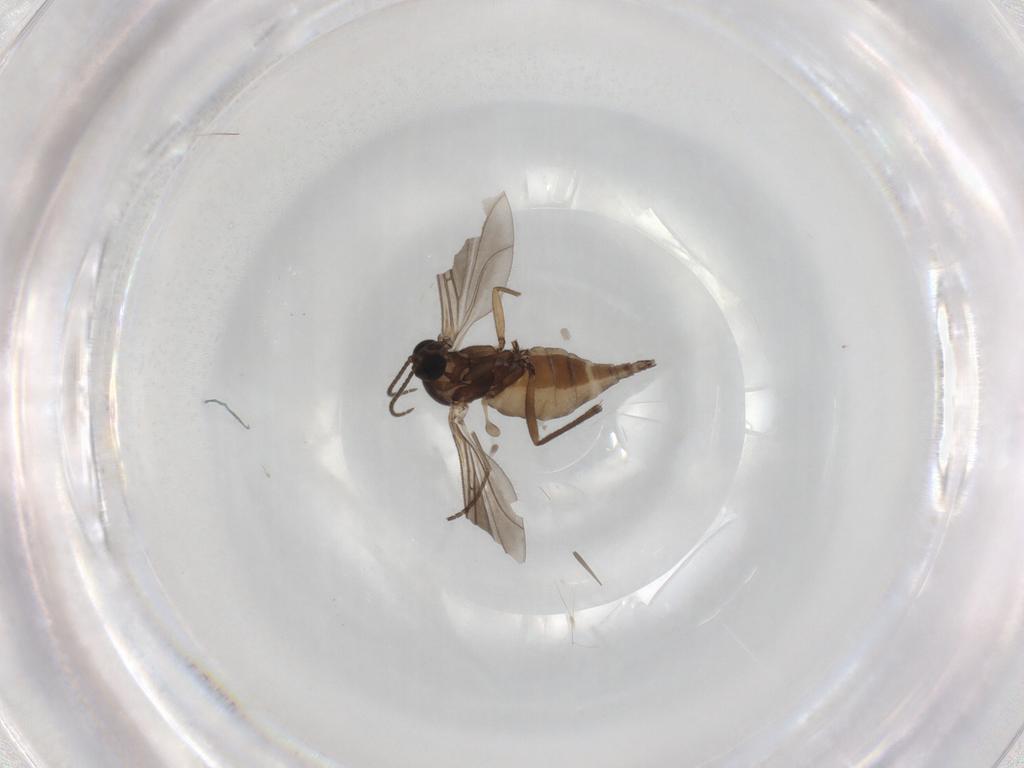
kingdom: Animalia
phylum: Arthropoda
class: Insecta
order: Diptera
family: Sciaridae
